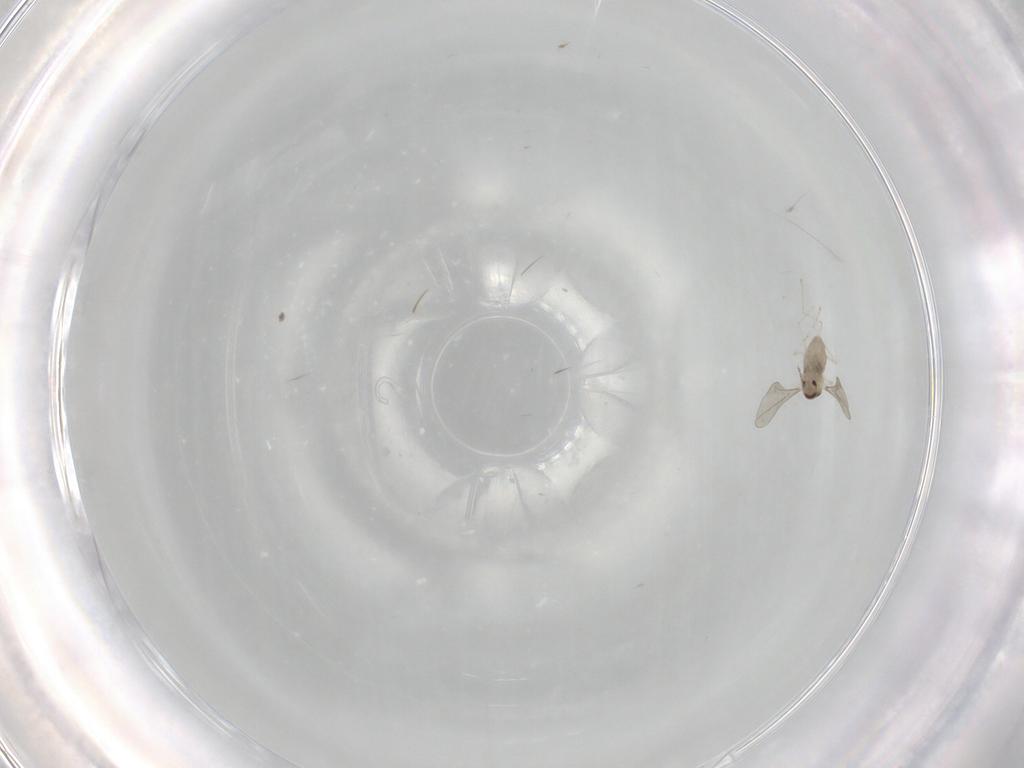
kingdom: Animalia
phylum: Arthropoda
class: Insecta
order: Diptera
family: Cecidomyiidae
